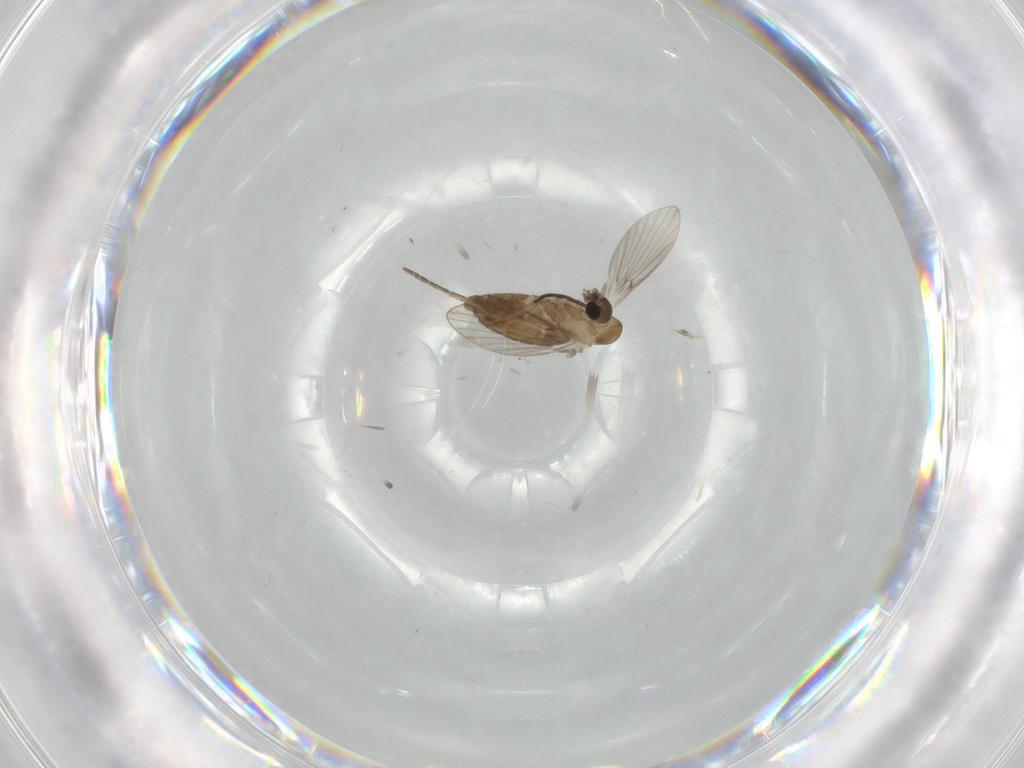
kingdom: Animalia
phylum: Arthropoda
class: Insecta
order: Diptera
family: Psychodidae
